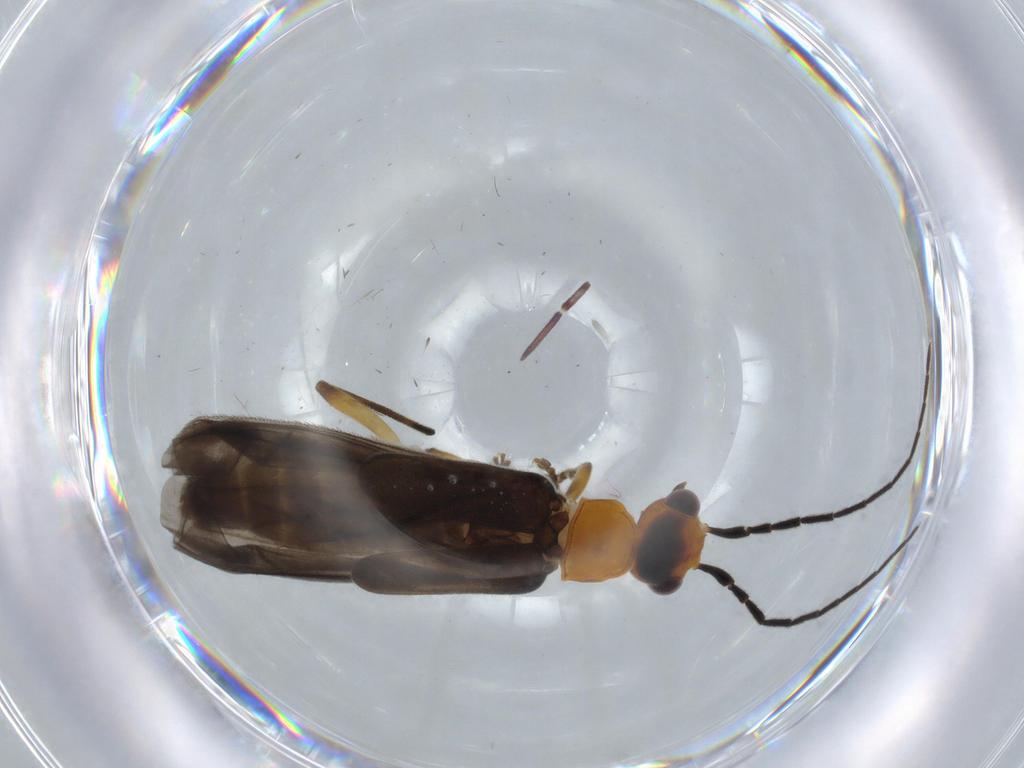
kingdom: Animalia
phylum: Arthropoda
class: Insecta
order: Coleoptera
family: Cantharidae
